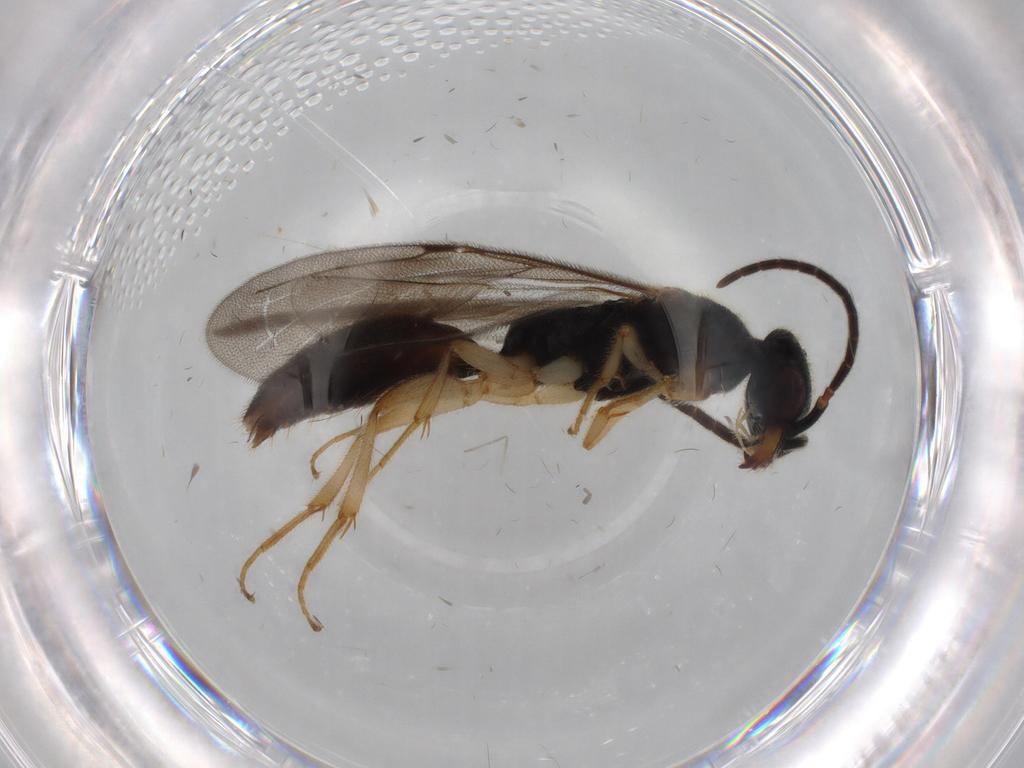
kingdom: Animalia
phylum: Arthropoda
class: Insecta
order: Hymenoptera
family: Bethylidae
